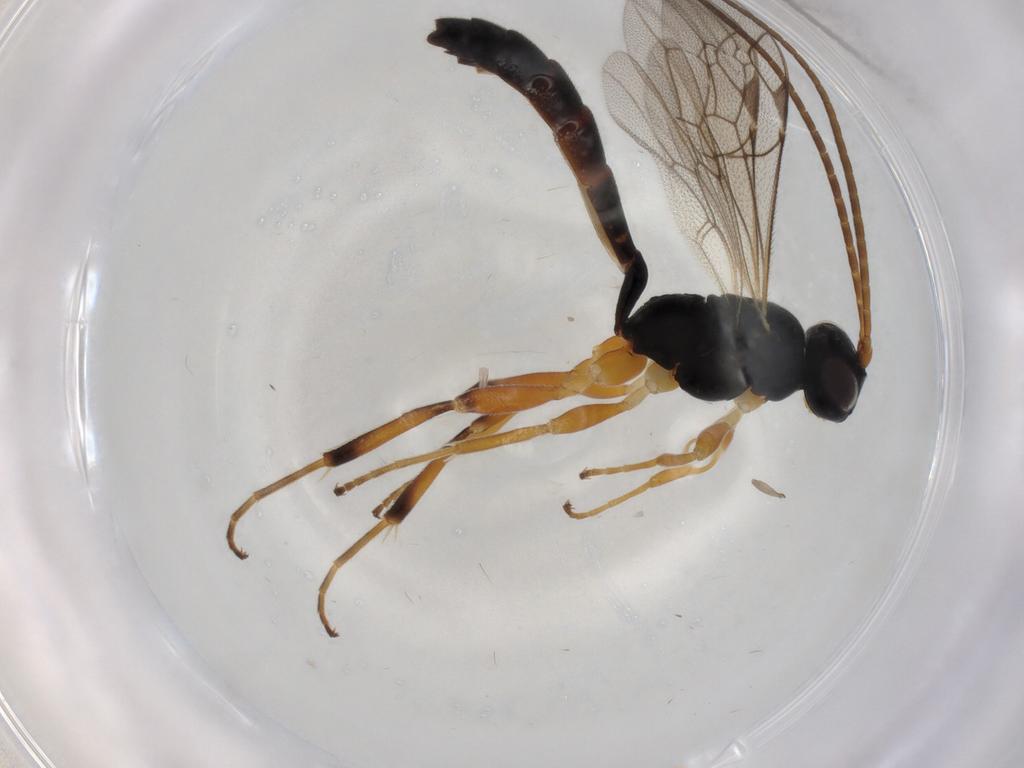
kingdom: Animalia
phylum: Arthropoda
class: Insecta
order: Hymenoptera
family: Ichneumonidae
